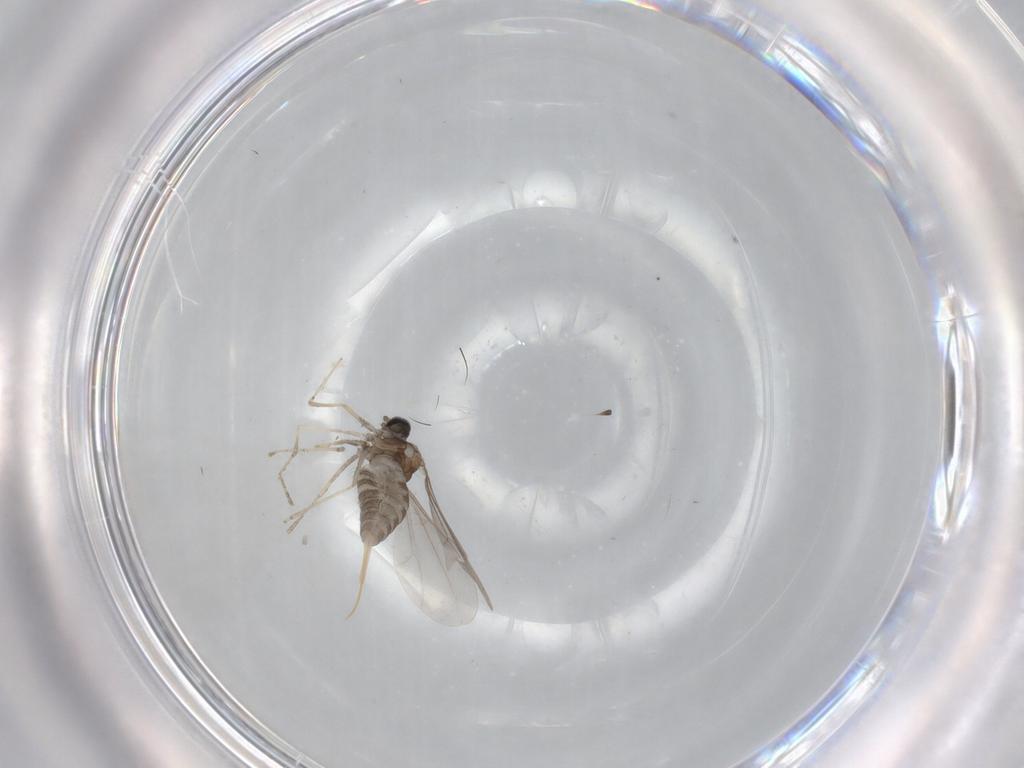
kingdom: Animalia
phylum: Arthropoda
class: Insecta
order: Diptera
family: Cecidomyiidae
